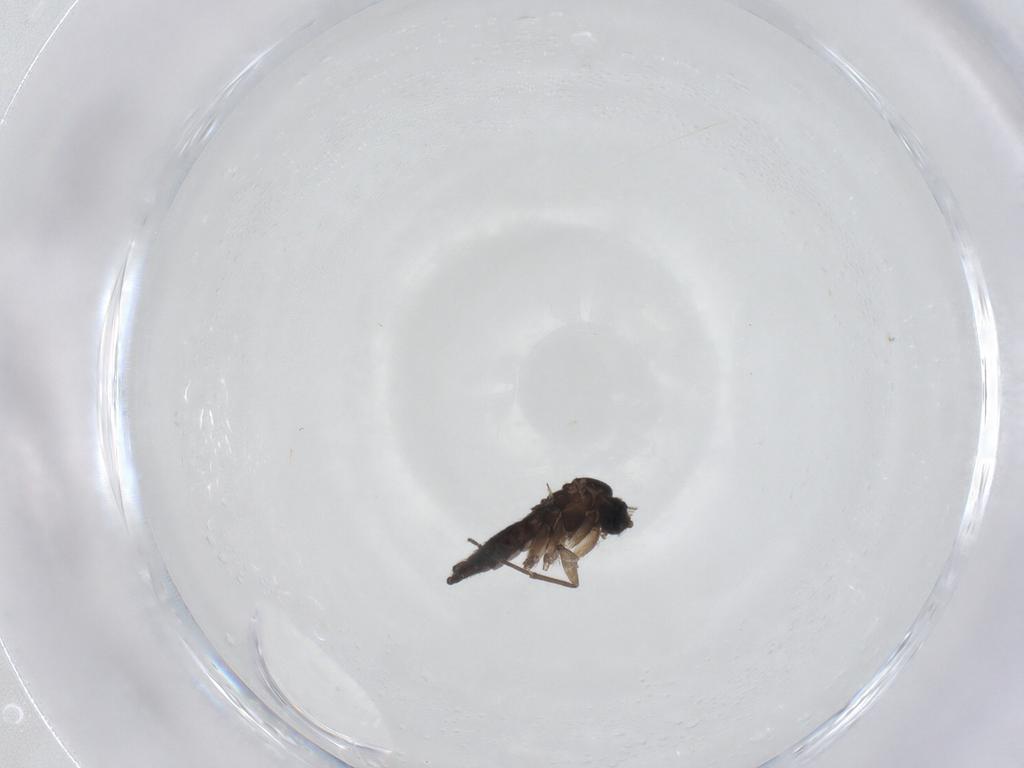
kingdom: Animalia
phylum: Arthropoda
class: Insecta
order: Diptera
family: Sciaridae
